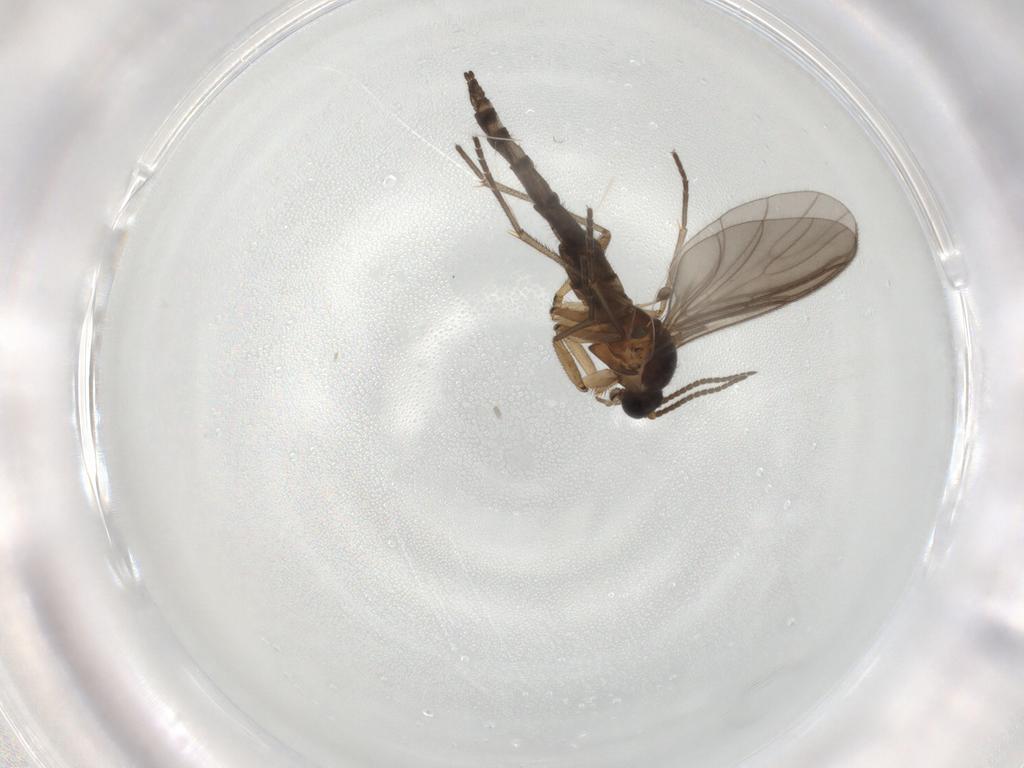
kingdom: Animalia
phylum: Arthropoda
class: Insecta
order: Diptera
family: Sciaridae
